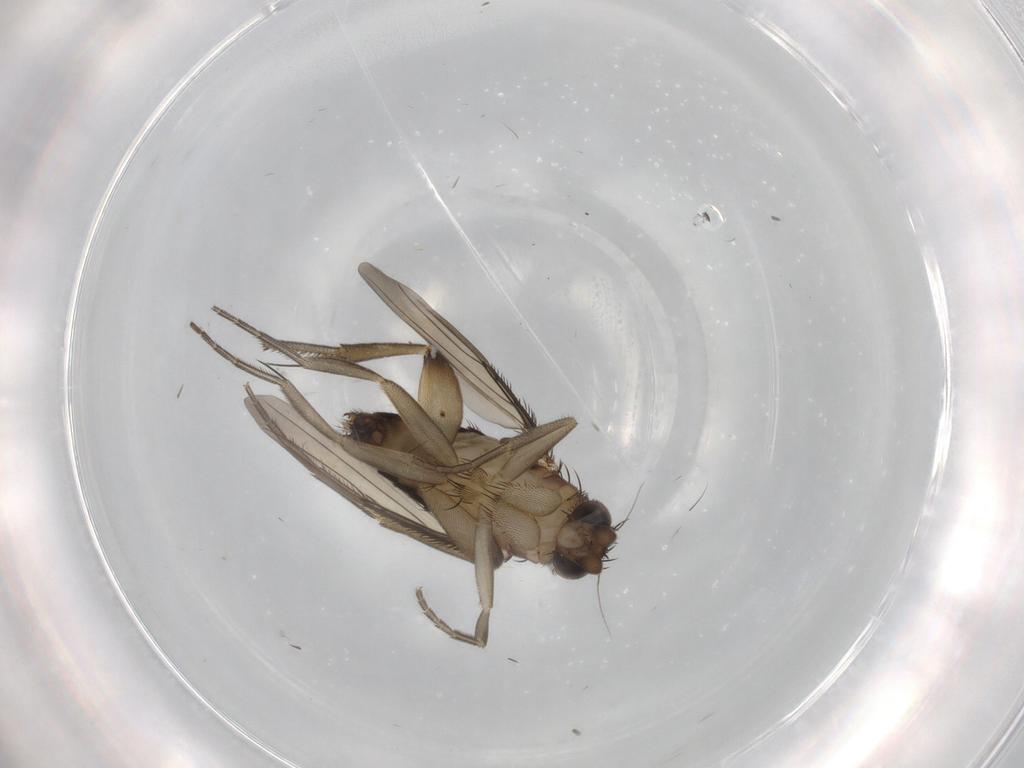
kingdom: Animalia
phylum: Arthropoda
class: Insecta
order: Diptera
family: Phoridae
